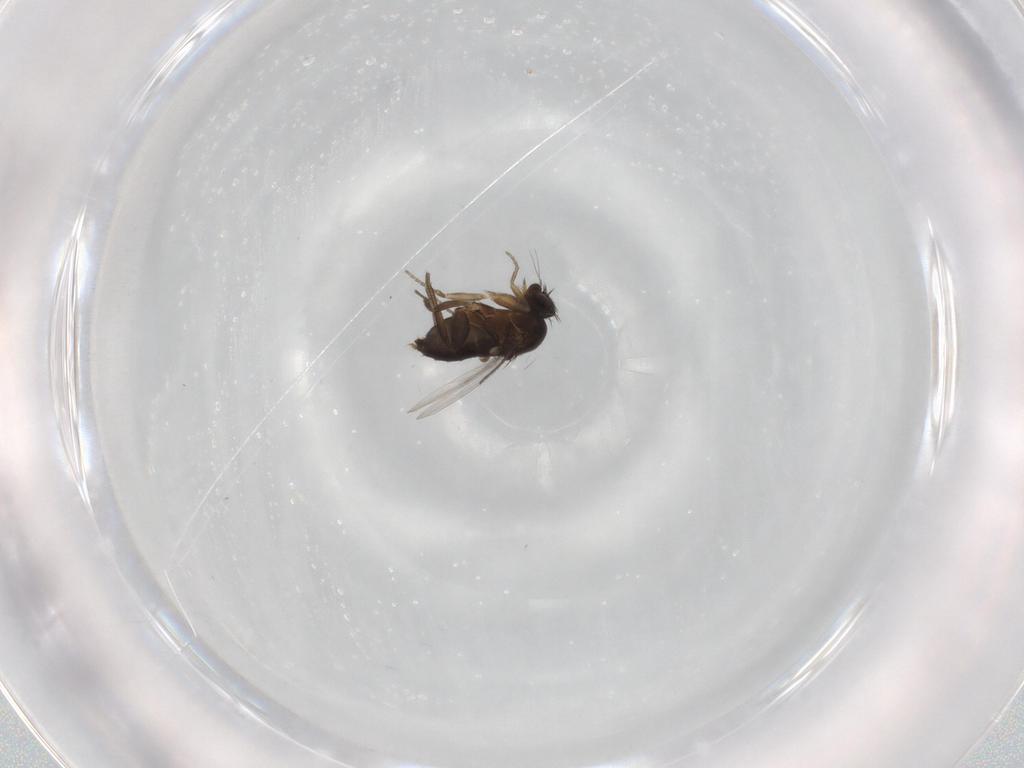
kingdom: Animalia
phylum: Arthropoda
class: Insecta
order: Diptera
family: Phoridae
